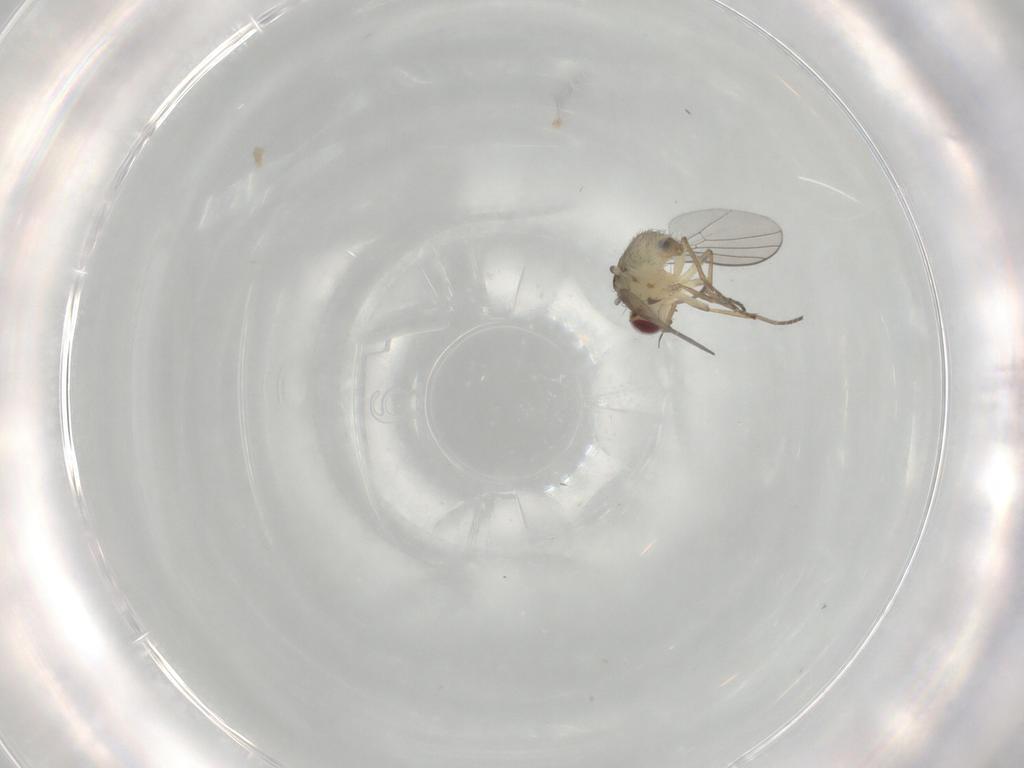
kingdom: Animalia
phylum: Arthropoda
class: Insecta
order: Diptera
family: Agromyzidae
